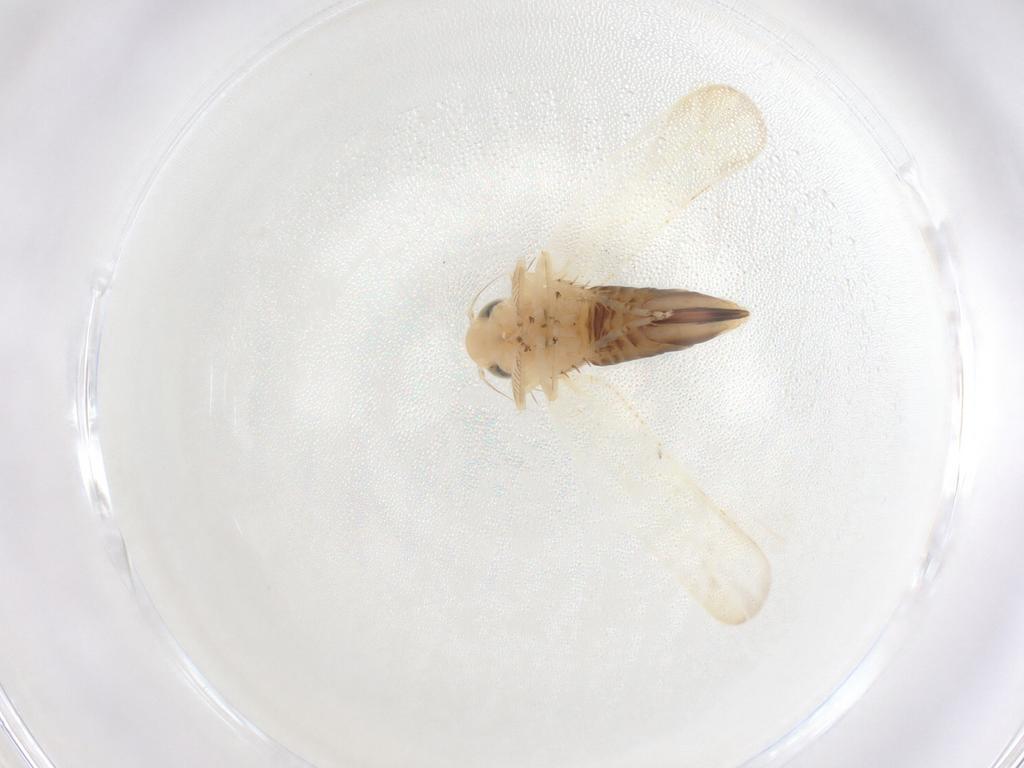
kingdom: Animalia
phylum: Arthropoda
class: Insecta
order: Hemiptera
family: Cicadellidae
